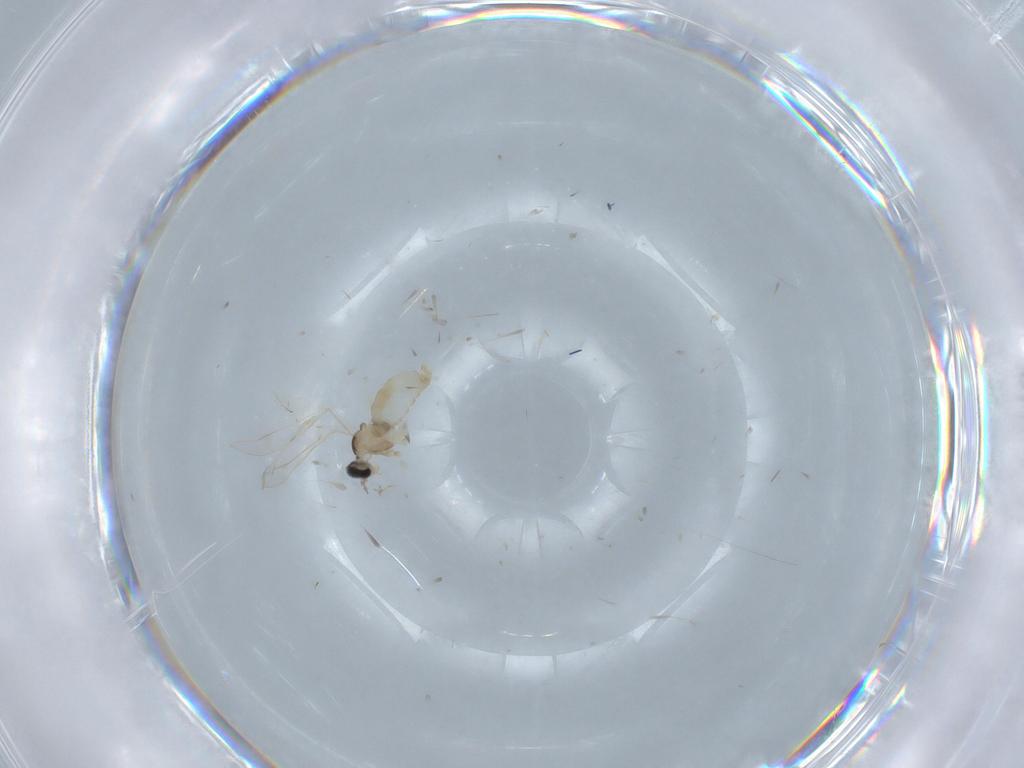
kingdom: Animalia
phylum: Arthropoda
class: Insecta
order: Diptera
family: Cecidomyiidae
